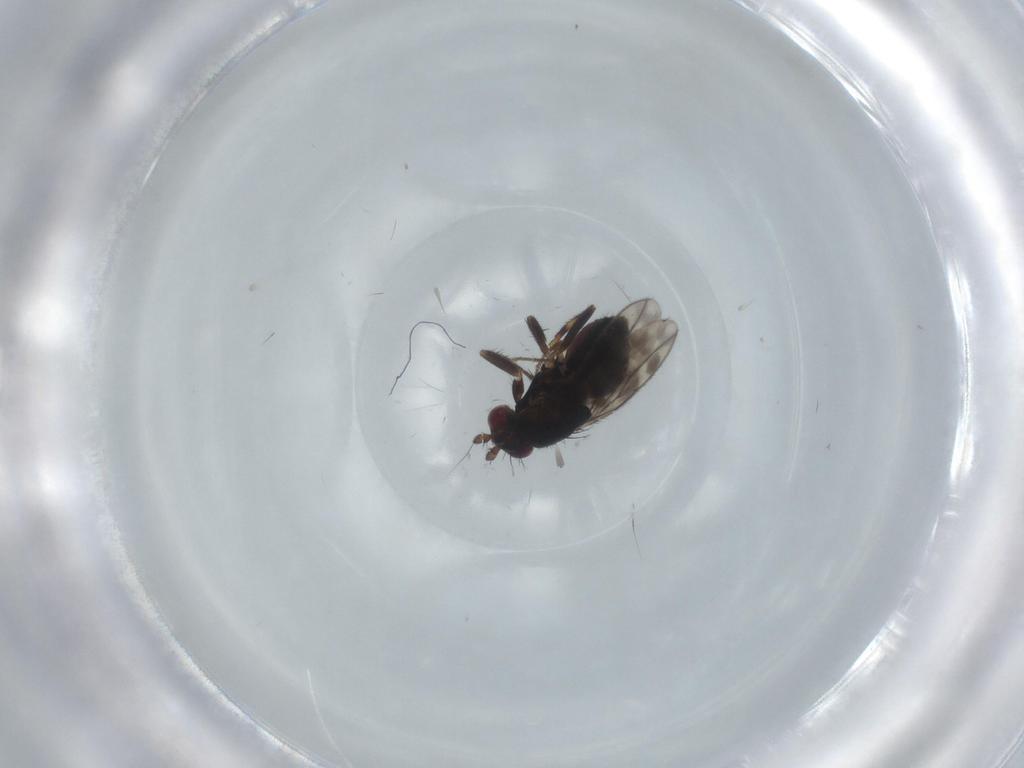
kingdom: Animalia
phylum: Arthropoda
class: Insecta
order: Diptera
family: Sphaeroceridae
